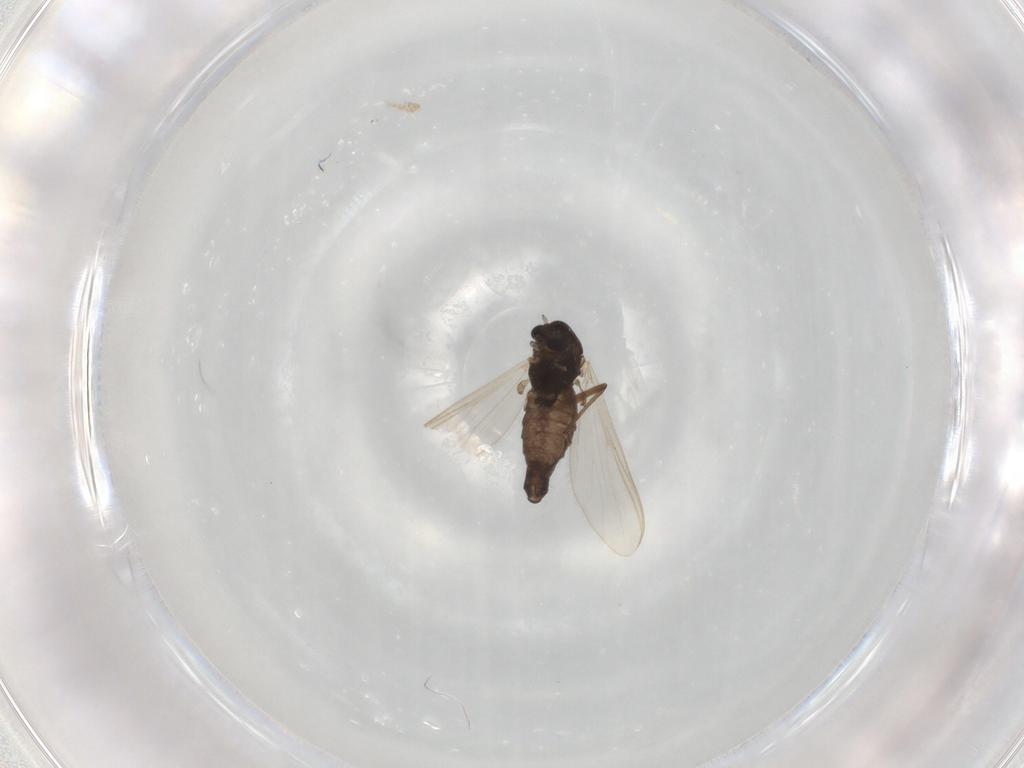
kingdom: Animalia
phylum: Arthropoda
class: Insecta
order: Diptera
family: Chironomidae
